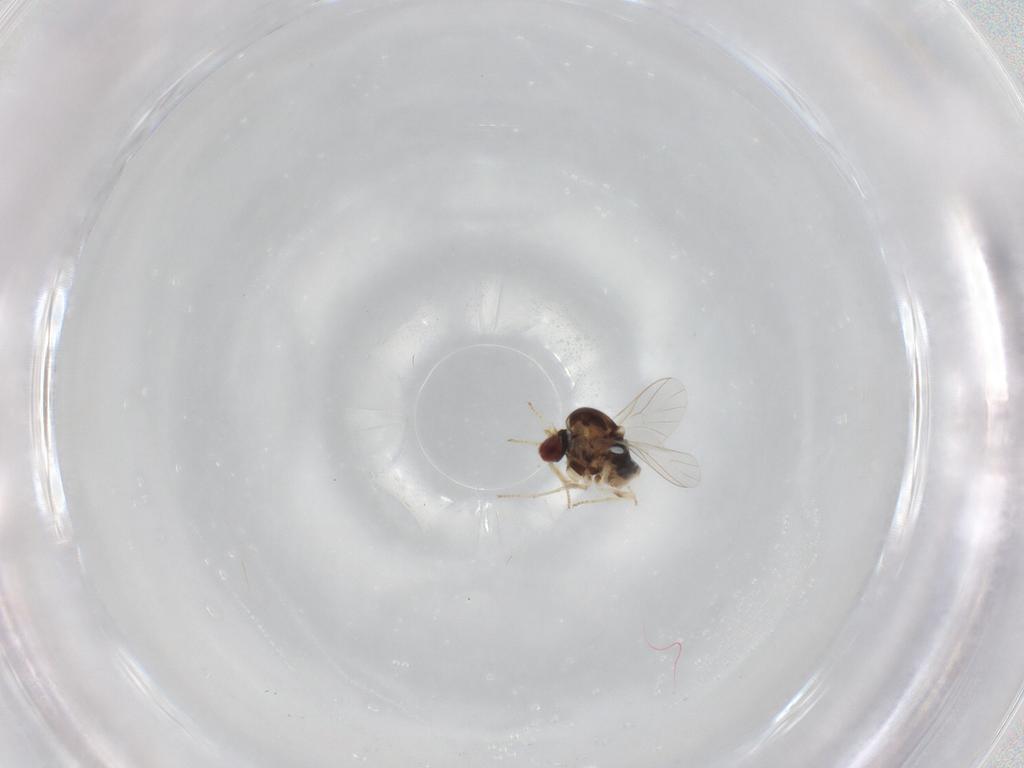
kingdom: Animalia
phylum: Arthropoda
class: Insecta
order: Diptera
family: Bombyliidae
